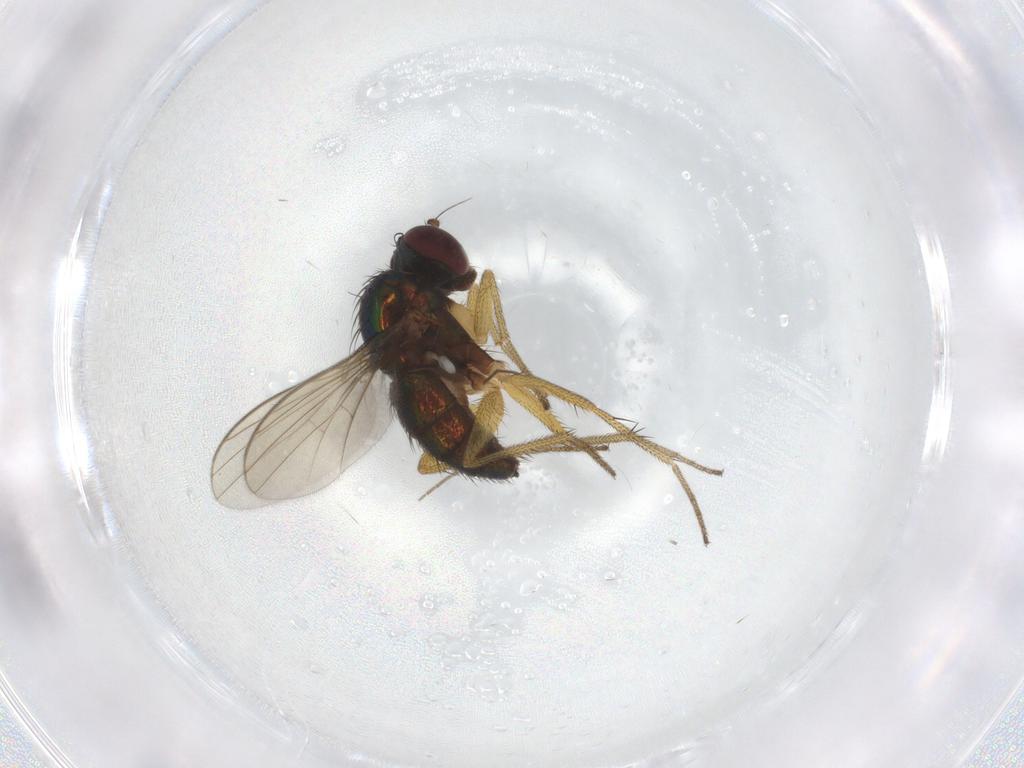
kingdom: Animalia
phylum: Arthropoda
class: Insecta
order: Diptera
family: Dolichopodidae
